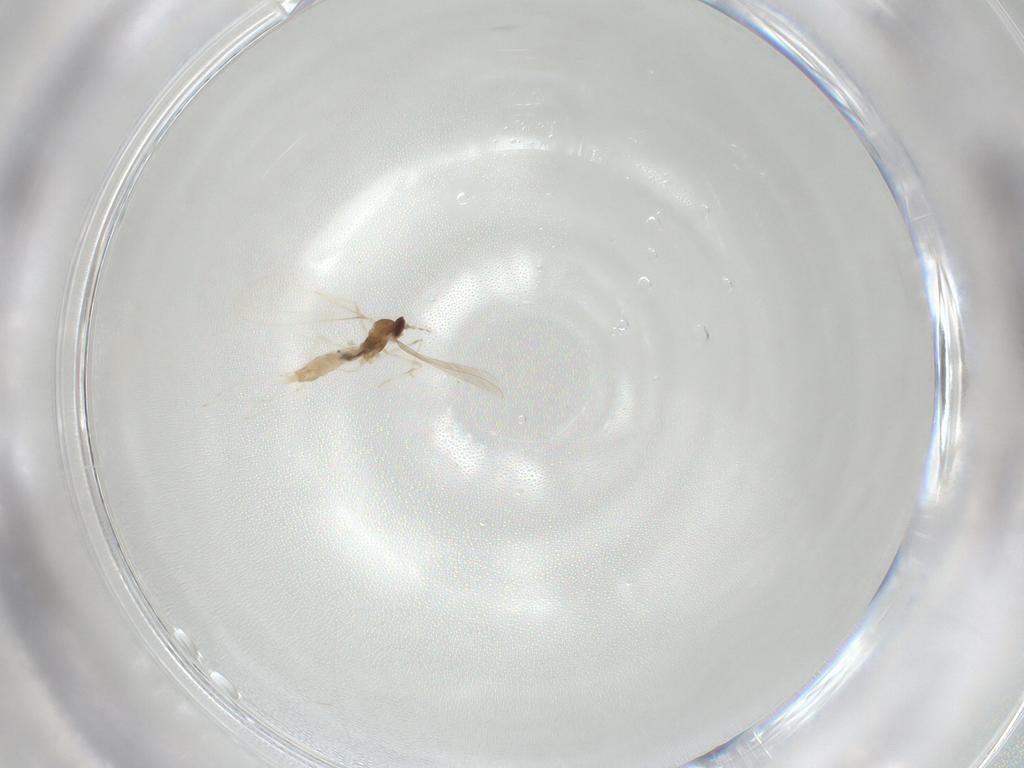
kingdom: Animalia
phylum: Arthropoda
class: Insecta
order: Diptera
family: Cecidomyiidae
